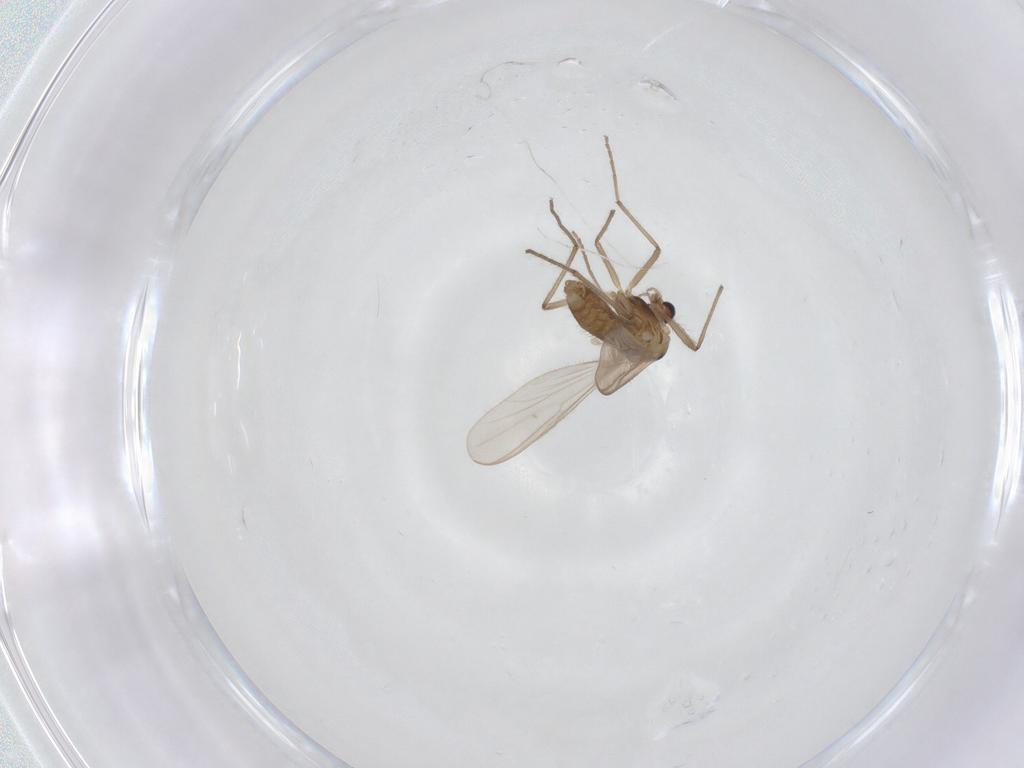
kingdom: Animalia
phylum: Arthropoda
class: Insecta
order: Diptera
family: Chironomidae
